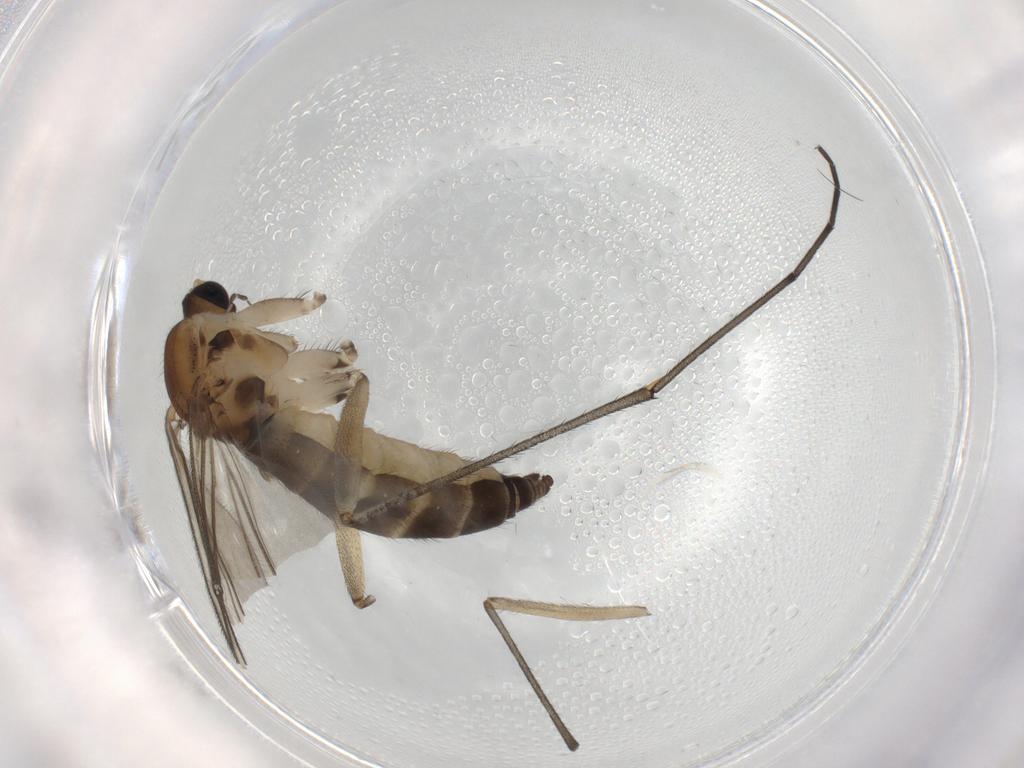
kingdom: Animalia
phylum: Arthropoda
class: Insecta
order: Diptera
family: Sciaridae
